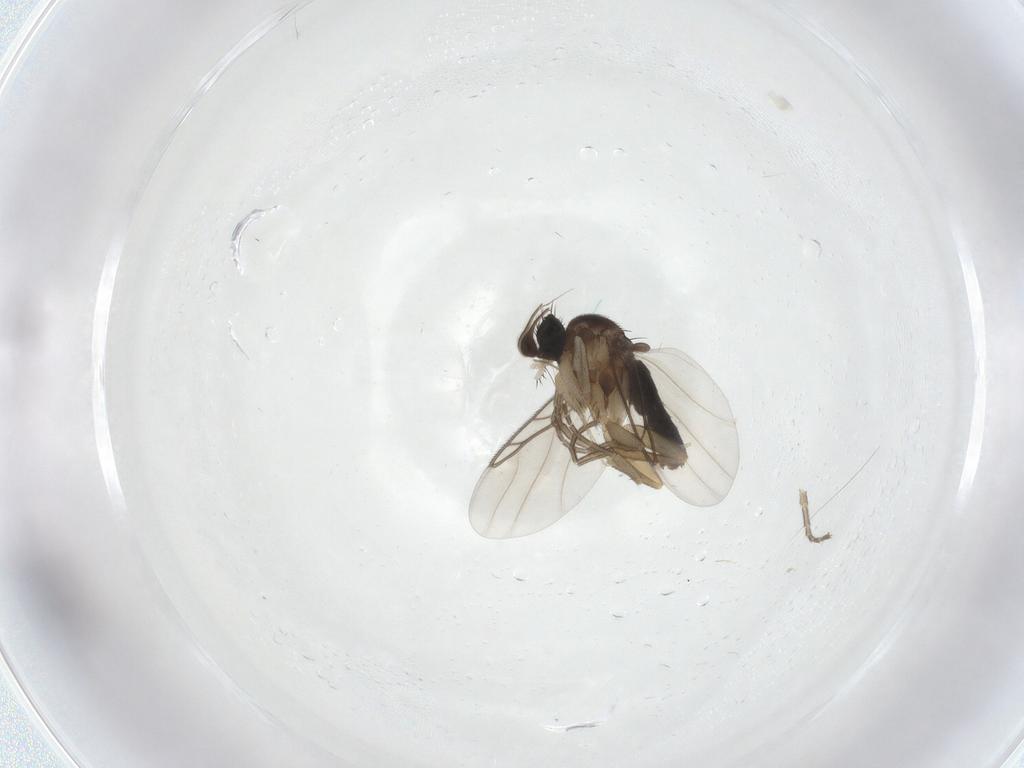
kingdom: Animalia
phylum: Arthropoda
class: Insecta
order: Diptera
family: Phoridae
